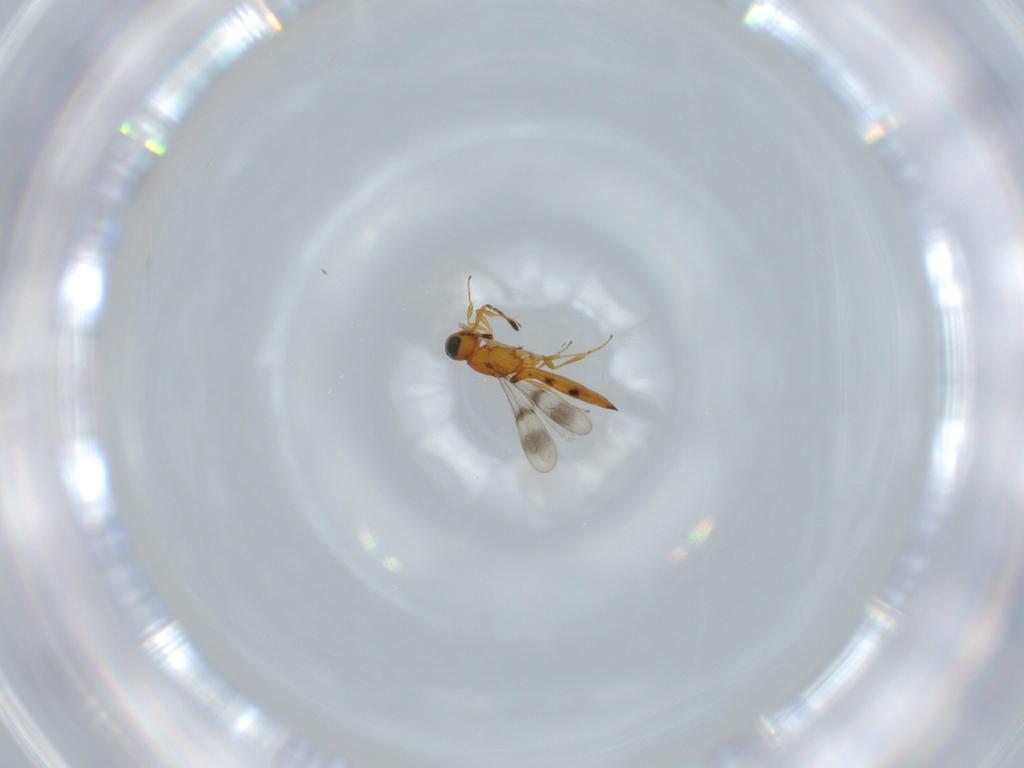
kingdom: Animalia
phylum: Arthropoda
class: Insecta
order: Hymenoptera
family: Scelionidae
